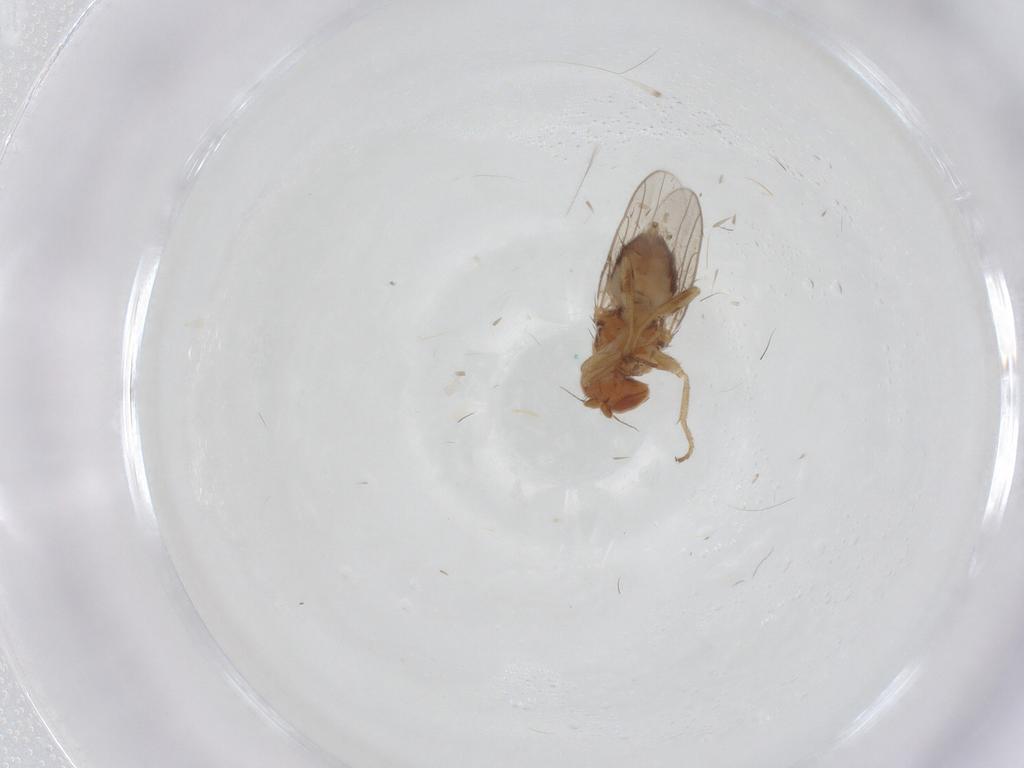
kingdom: Animalia
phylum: Arthropoda
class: Insecta
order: Diptera
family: Chloropidae
